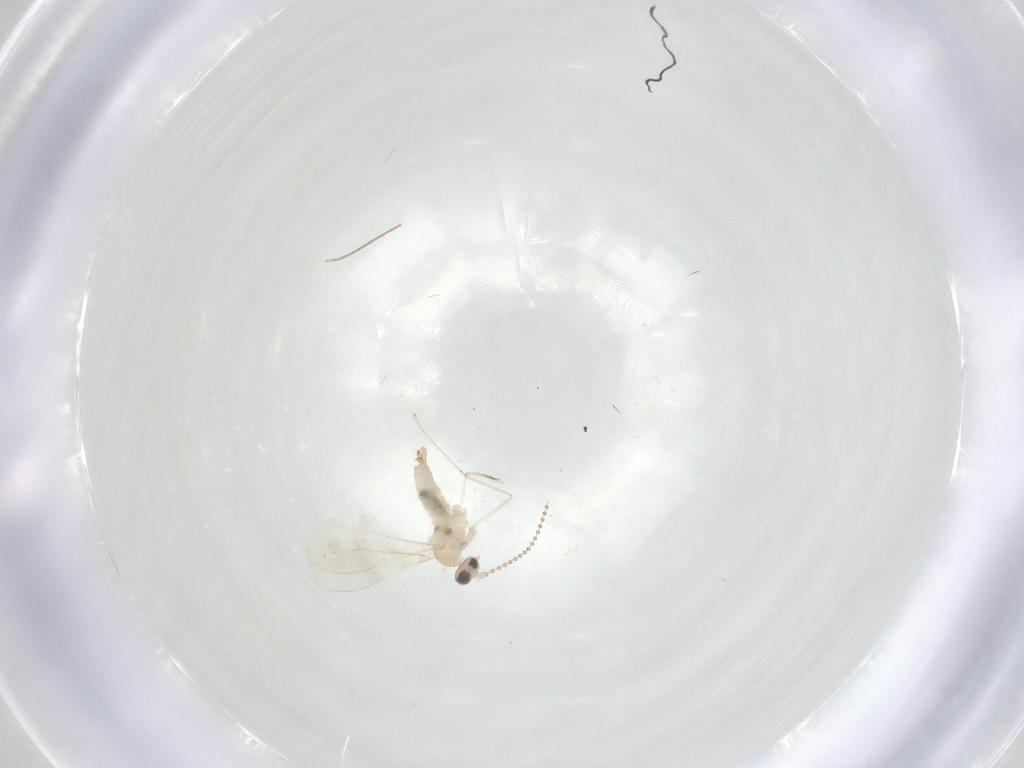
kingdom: Animalia
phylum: Arthropoda
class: Insecta
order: Diptera
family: Cecidomyiidae
